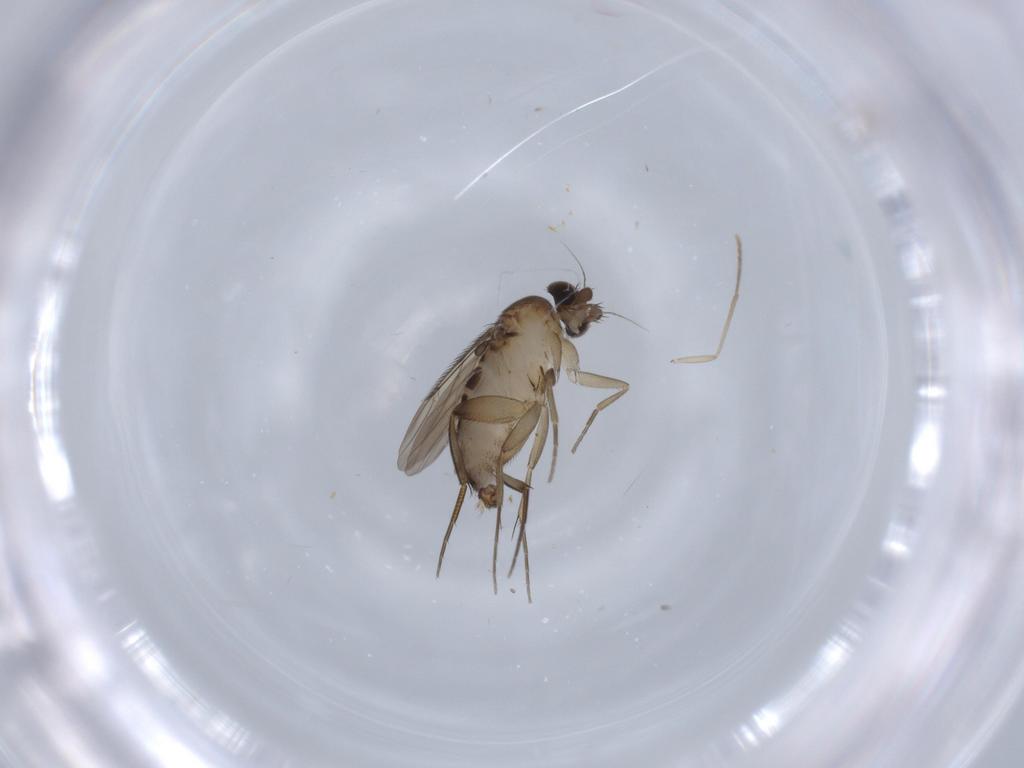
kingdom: Animalia
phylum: Arthropoda
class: Insecta
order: Diptera
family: Phoridae
